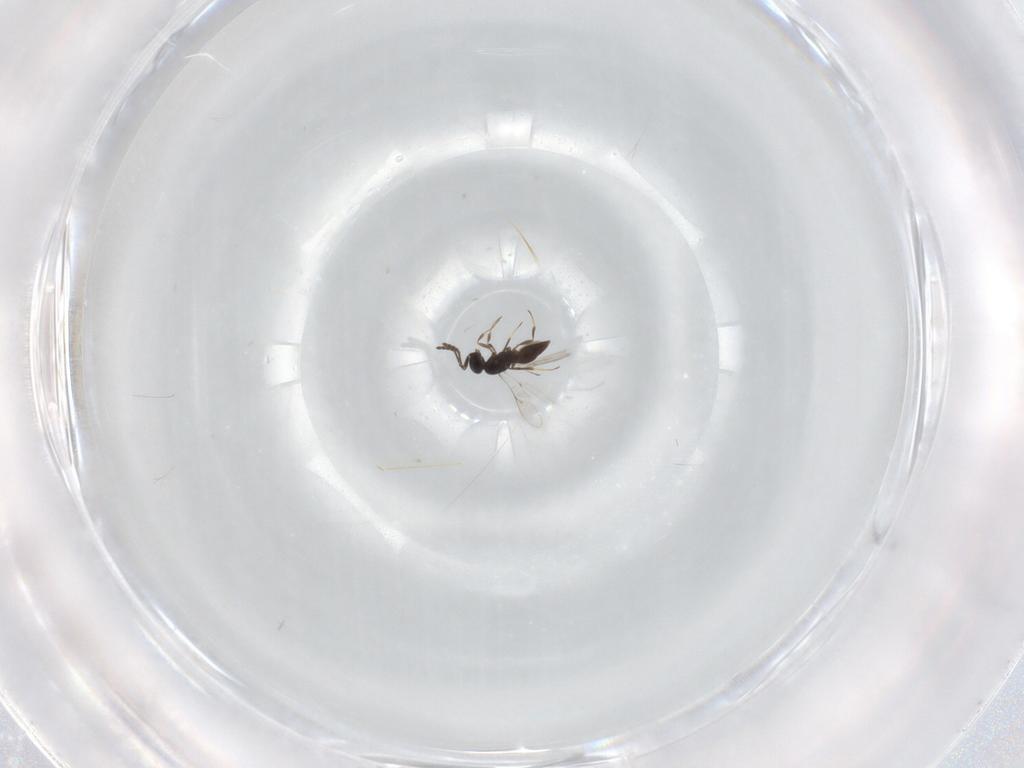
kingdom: Animalia
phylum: Arthropoda
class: Insecta
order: Hymenoptera
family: Scelionidae
